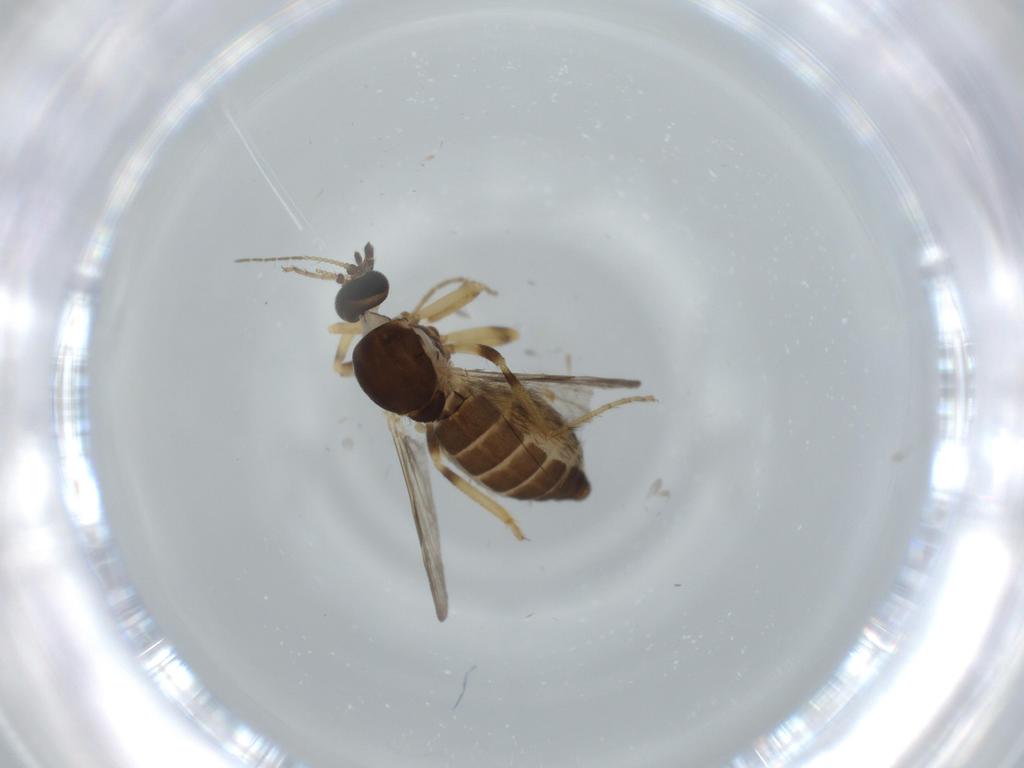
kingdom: Animalia
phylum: Arthropoda
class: Insecta
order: Diptera
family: Ceratopogonidae
